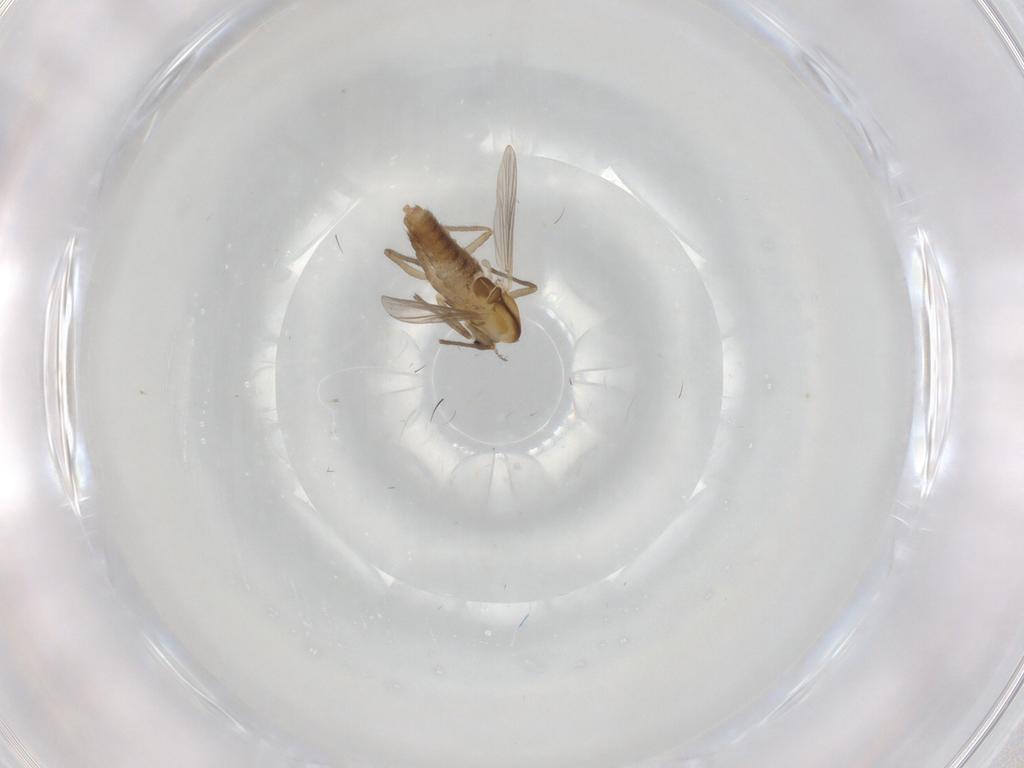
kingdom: Animalia
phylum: Arthropoda
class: Insecta
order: Diptera
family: Chironomidae
